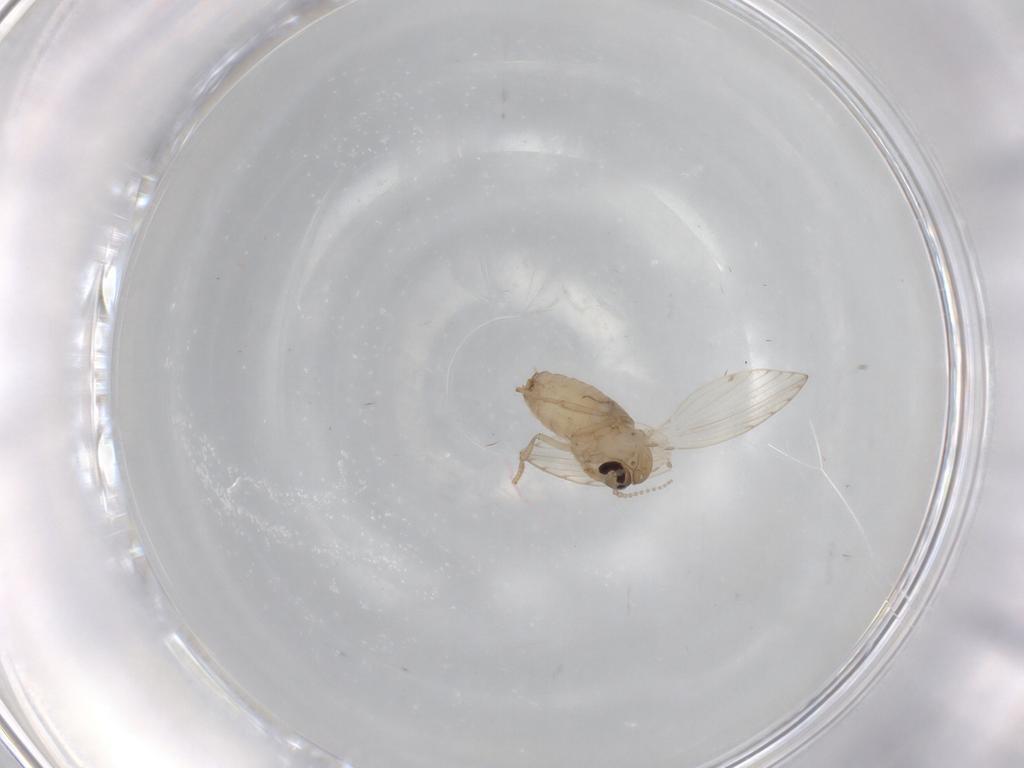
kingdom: Animalia
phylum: Arthropoda
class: Insecta
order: Diptera
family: Psychodidae
